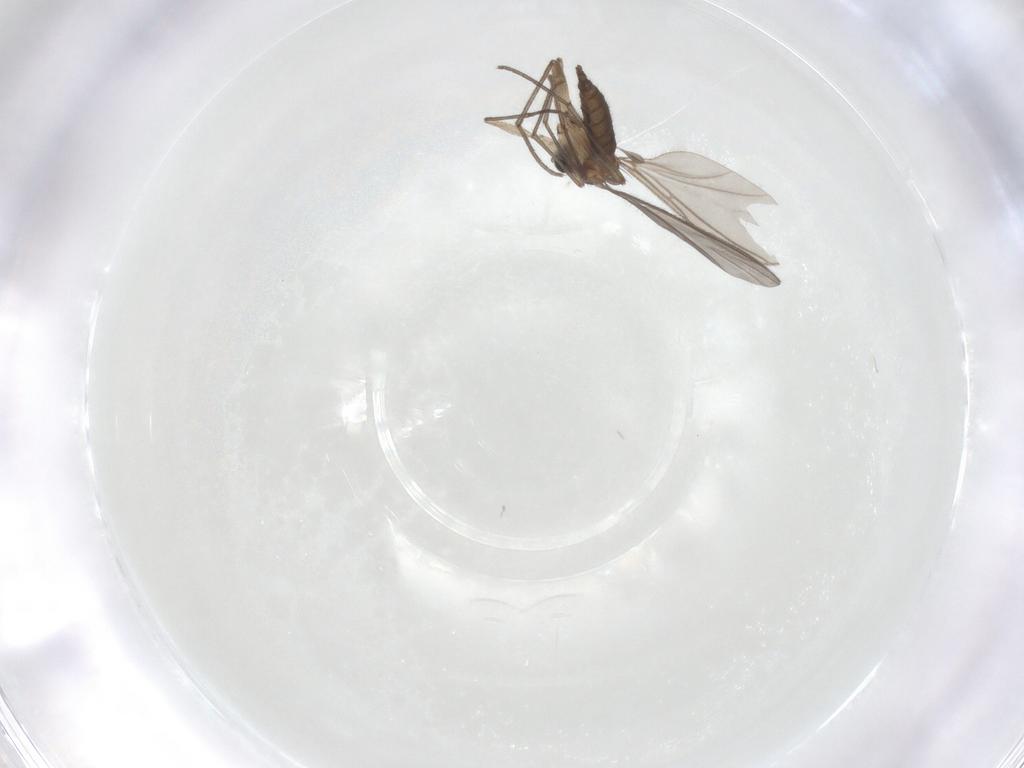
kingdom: Animalia
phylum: Arthropoda
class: Insecta
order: Diptera
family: Sciaridae
